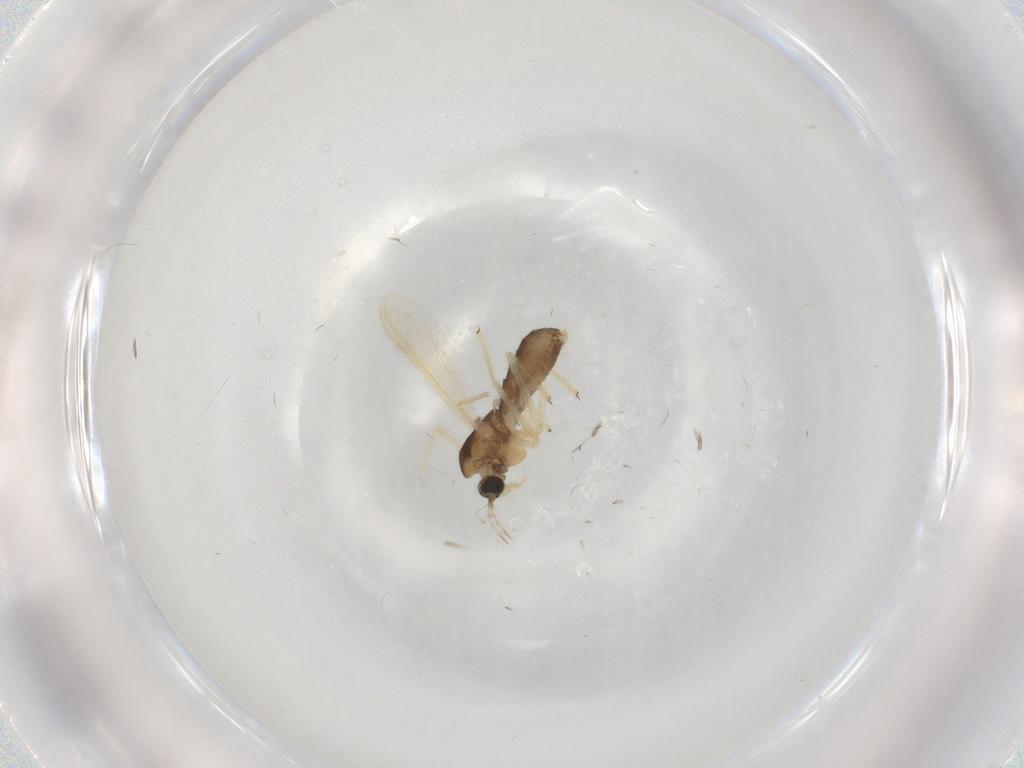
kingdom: Animalia
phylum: Arthropoda
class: Insecta
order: Diptera
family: Chironomidae
